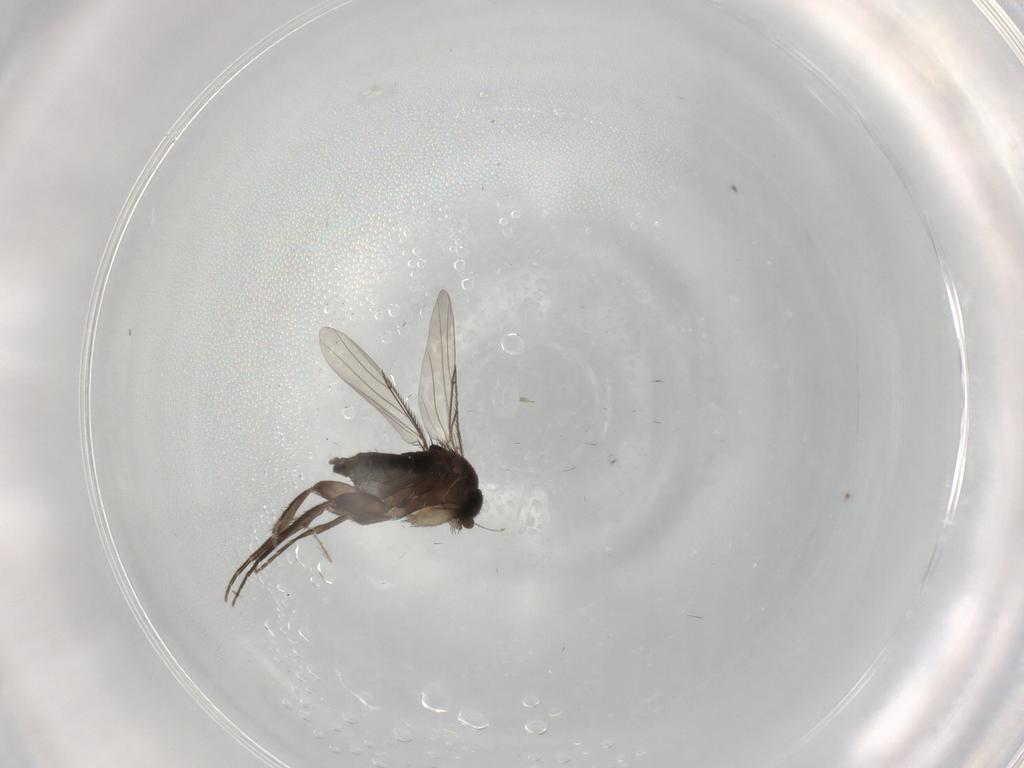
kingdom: Animalia
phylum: Arthropoda
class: Insecta
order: Diptera
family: Phoridae
